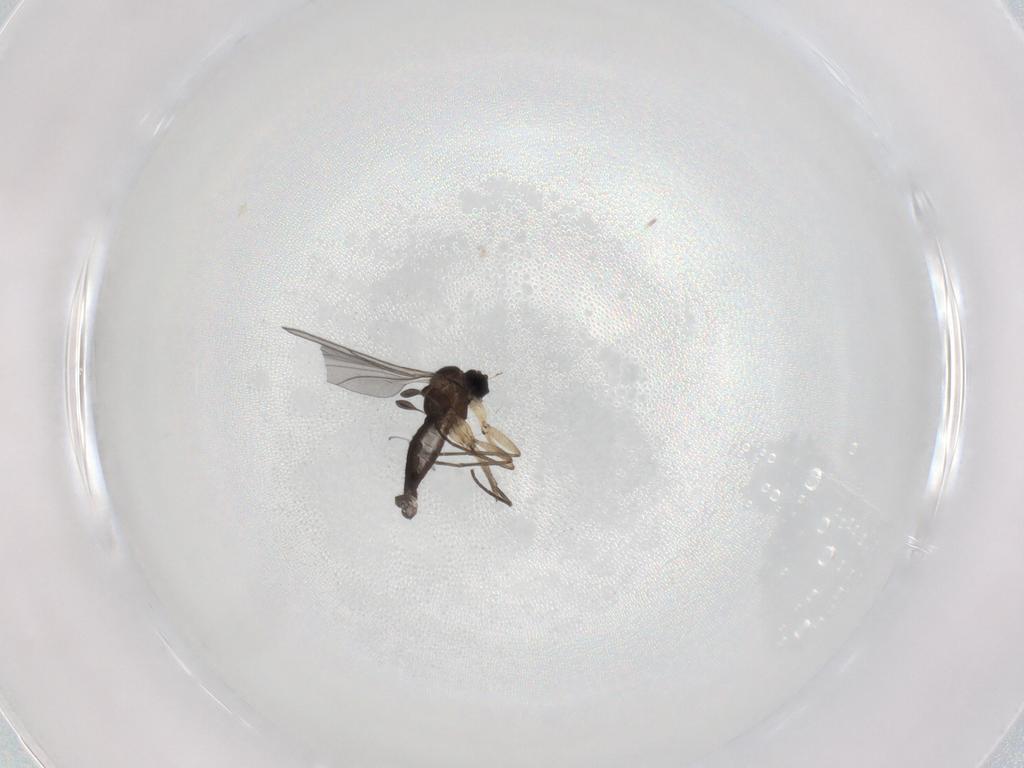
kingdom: Animalia
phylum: Arthropoda
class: Insecta
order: Diptera
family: Sciaridae
